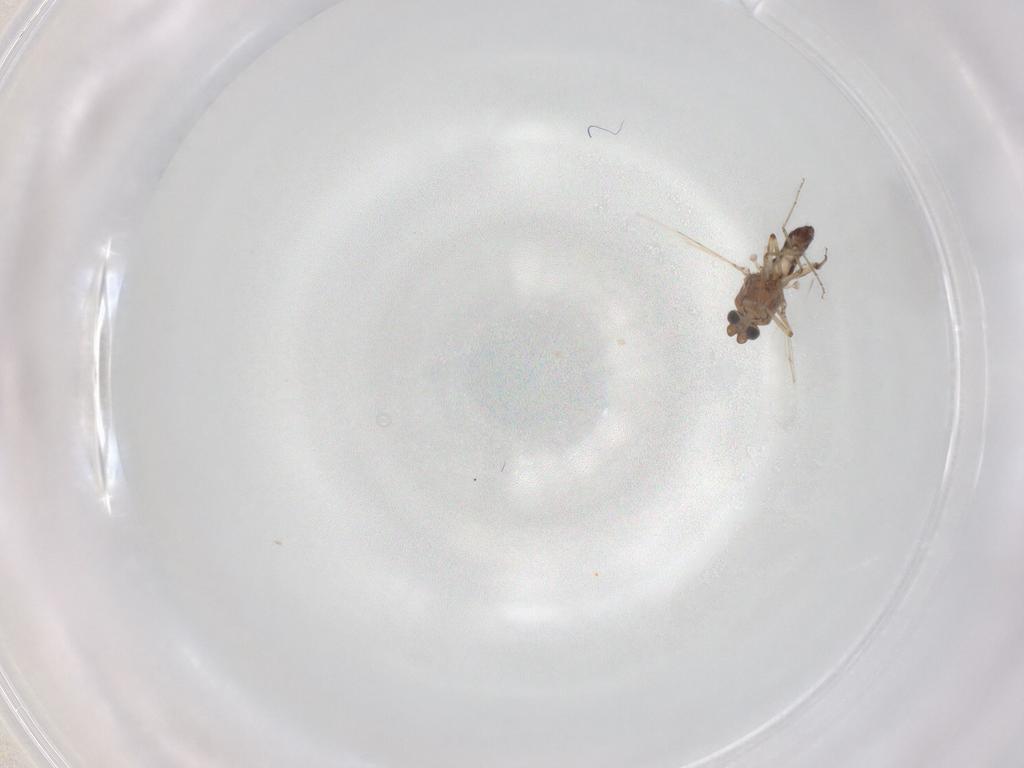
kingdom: Animalia
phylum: Arthropoda
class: Insecta
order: Diptera
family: Ceratopogonidae
